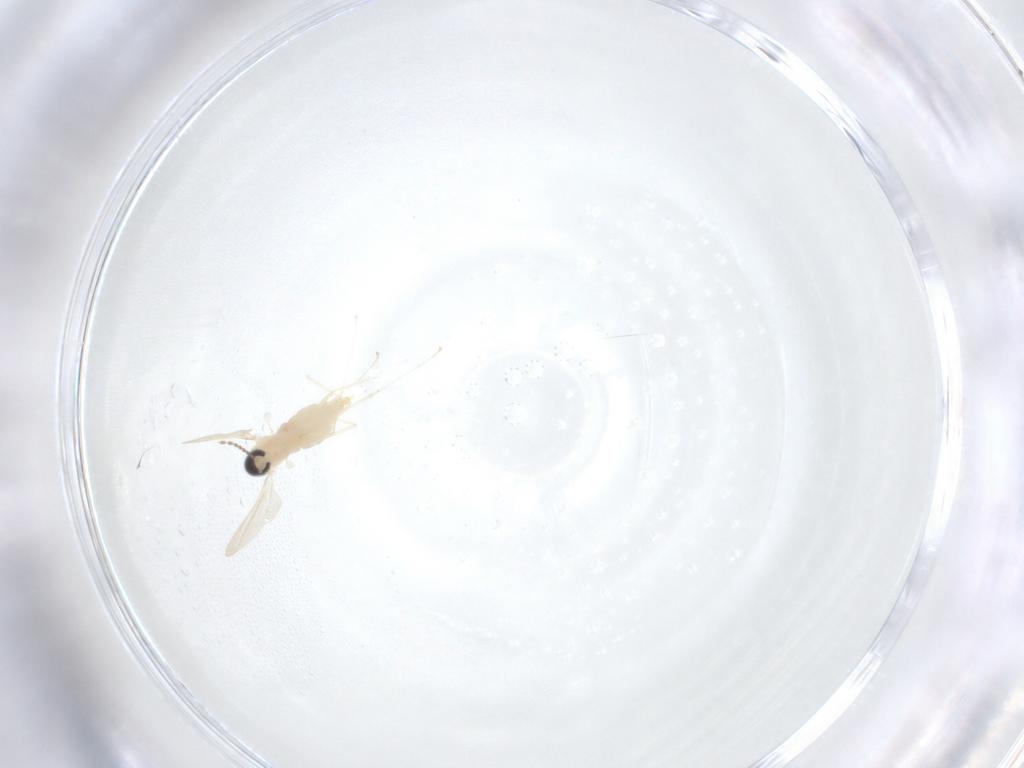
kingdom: Animalia
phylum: Arthropoda
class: Insecta
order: Diptera
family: Cecidomyiidae
